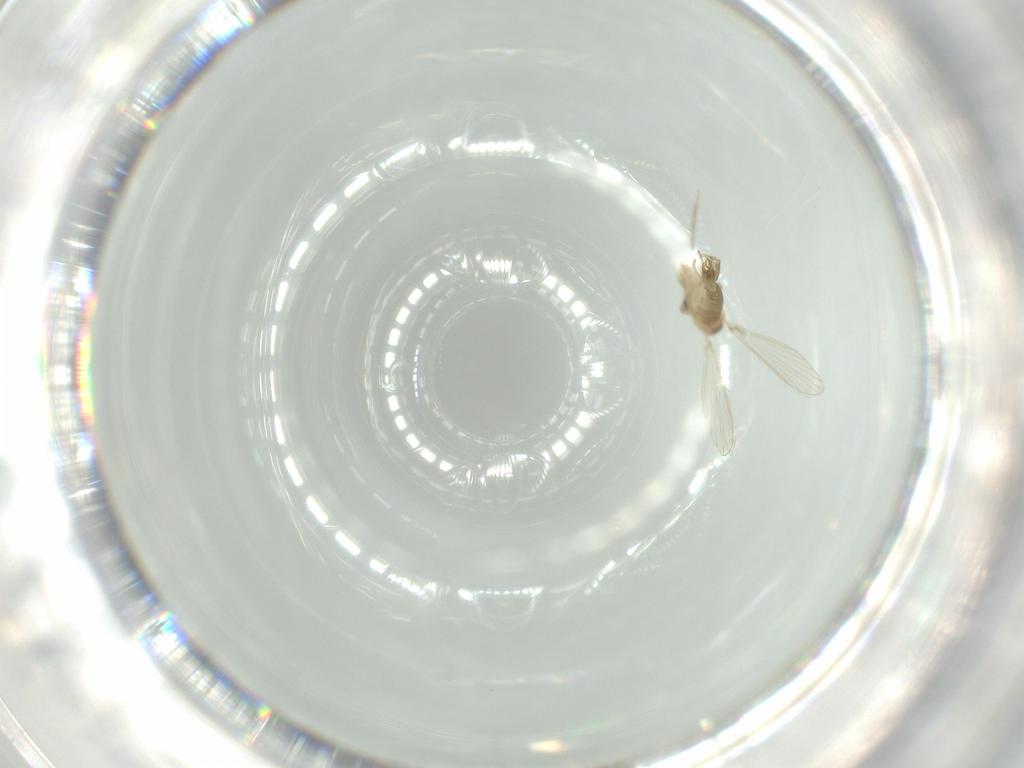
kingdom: Animalia
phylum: Arthropoda
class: Insecta
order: Diptera
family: Psychodidae
